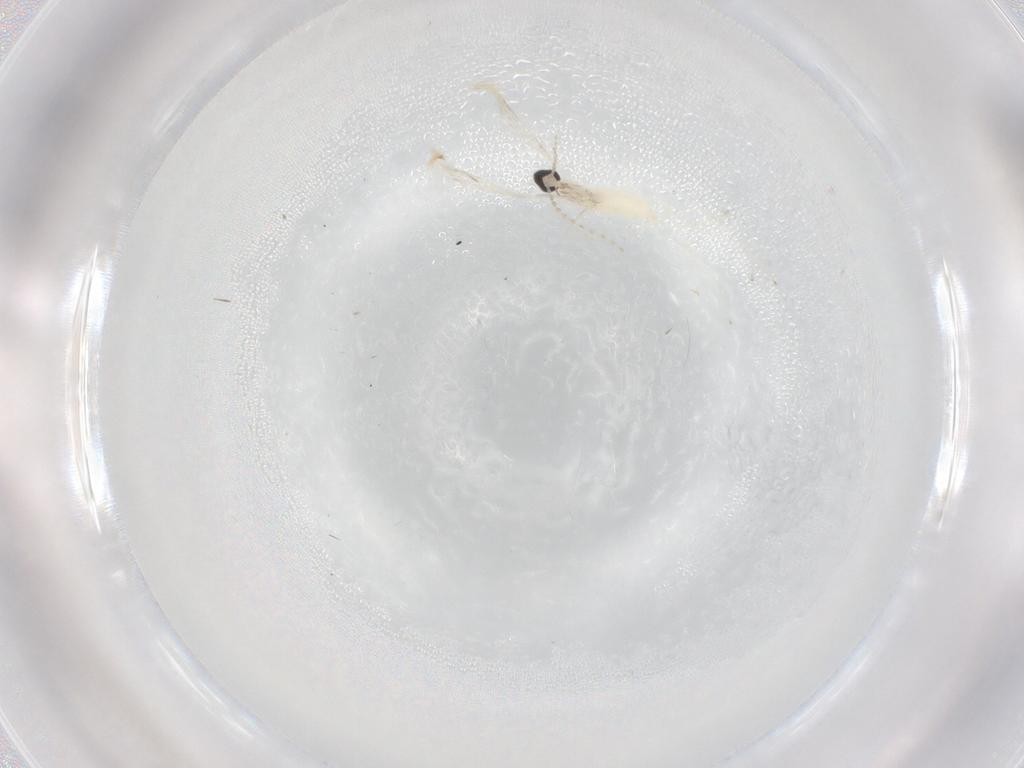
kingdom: Animalia
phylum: Arthropoda
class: Insecta
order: Diptera
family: Cecidomyiidae
